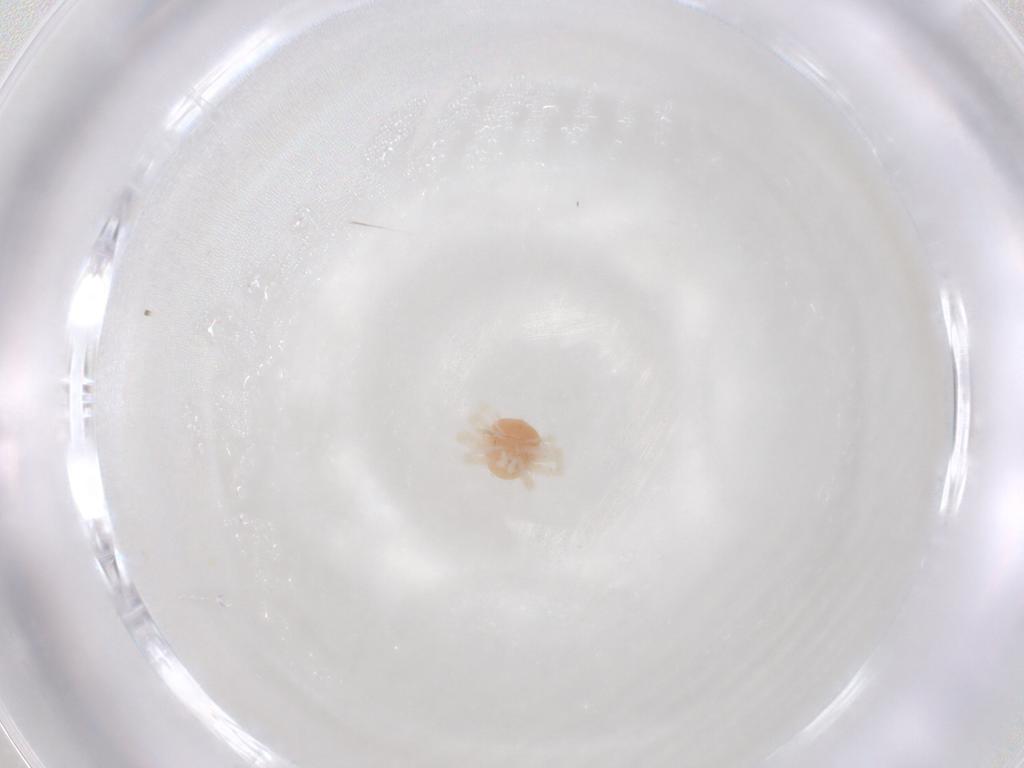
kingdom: Animalia
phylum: Arthropoda
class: Arachnida
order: Trombidiformes
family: Anystidae
